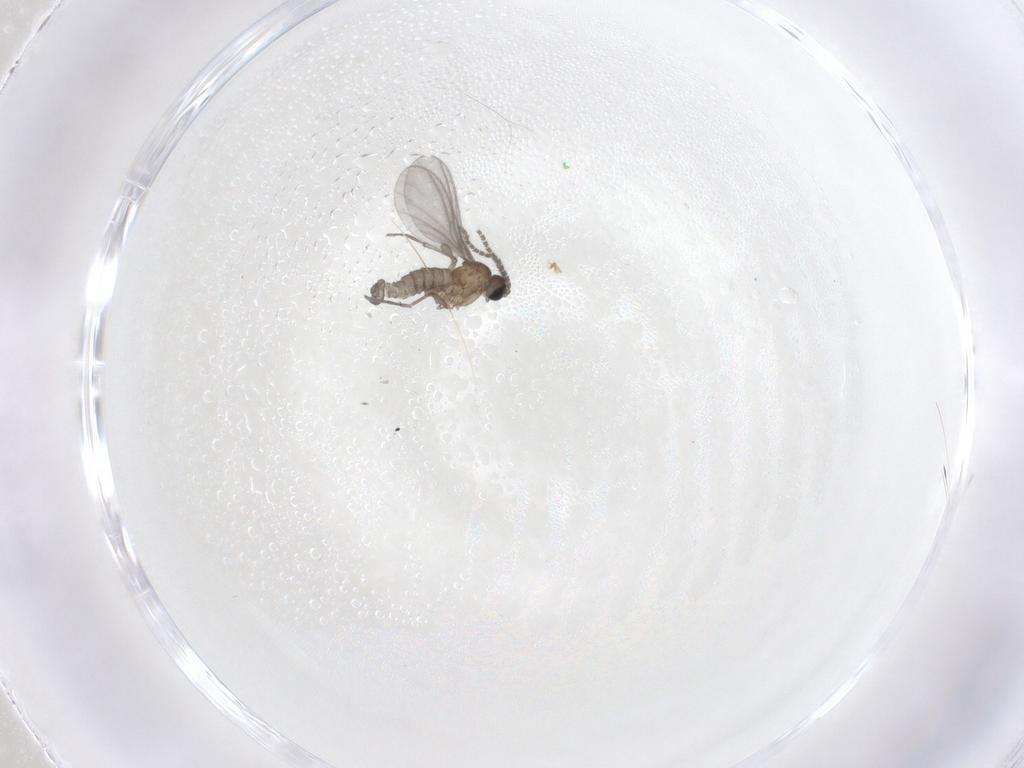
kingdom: Animalia
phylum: Arthropoda
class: Insecta
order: Diptera
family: Sciaridae
